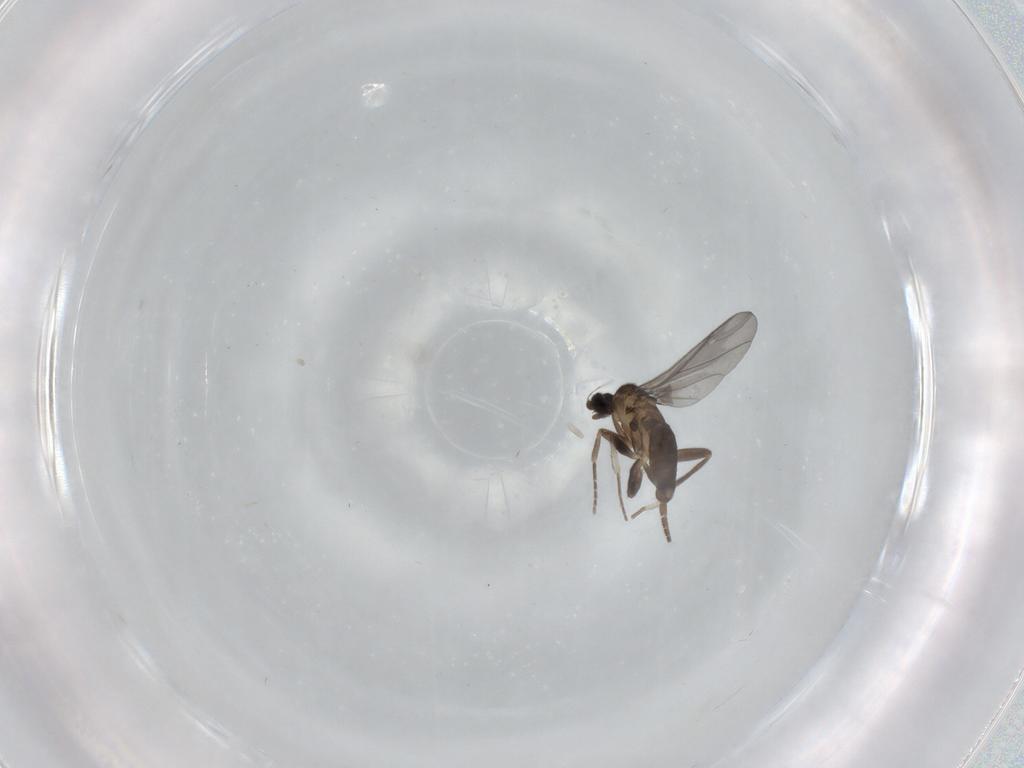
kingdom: Animalia
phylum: Arthropoda
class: Insecta
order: Diptera
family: Phoridae
